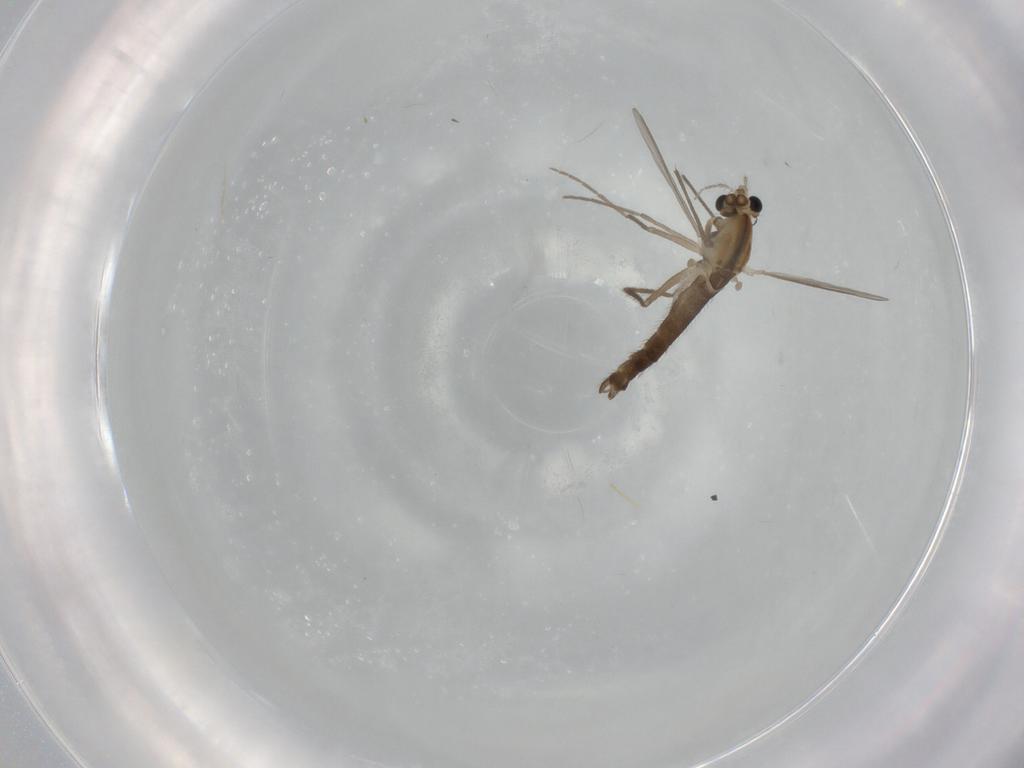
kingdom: Animalia
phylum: Arthropoda
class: Insecta
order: Diptera
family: Chironomidae
